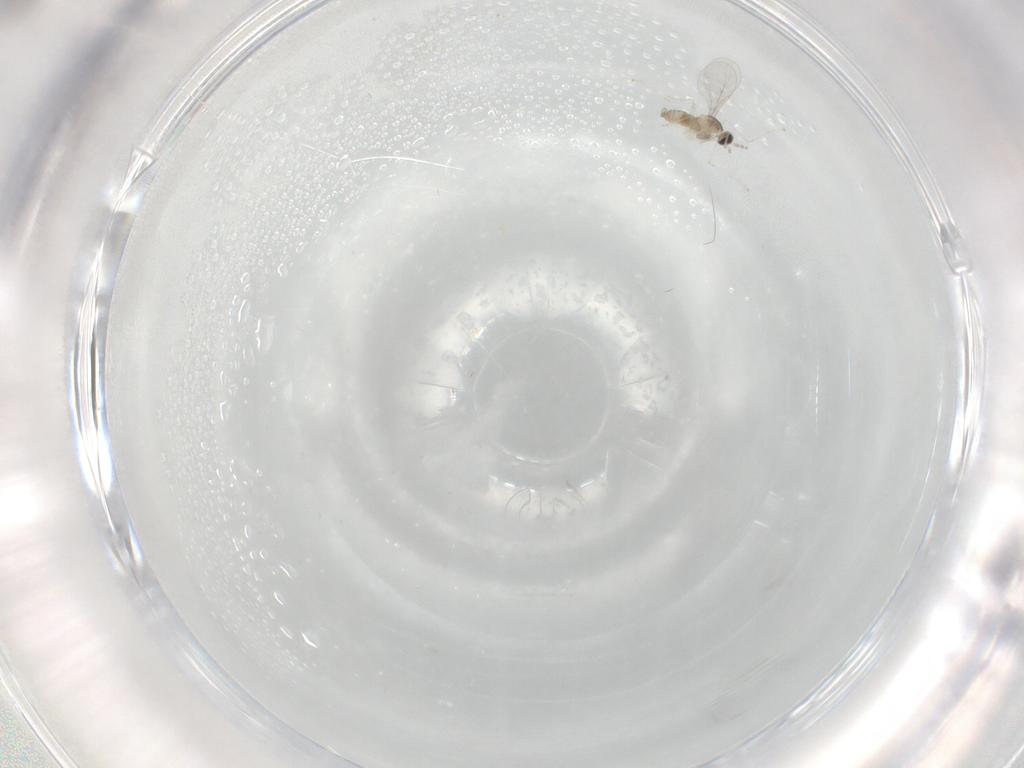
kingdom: Animalia
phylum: Arthropoda
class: Insecta
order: Diptera
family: Cecidomyiidae
